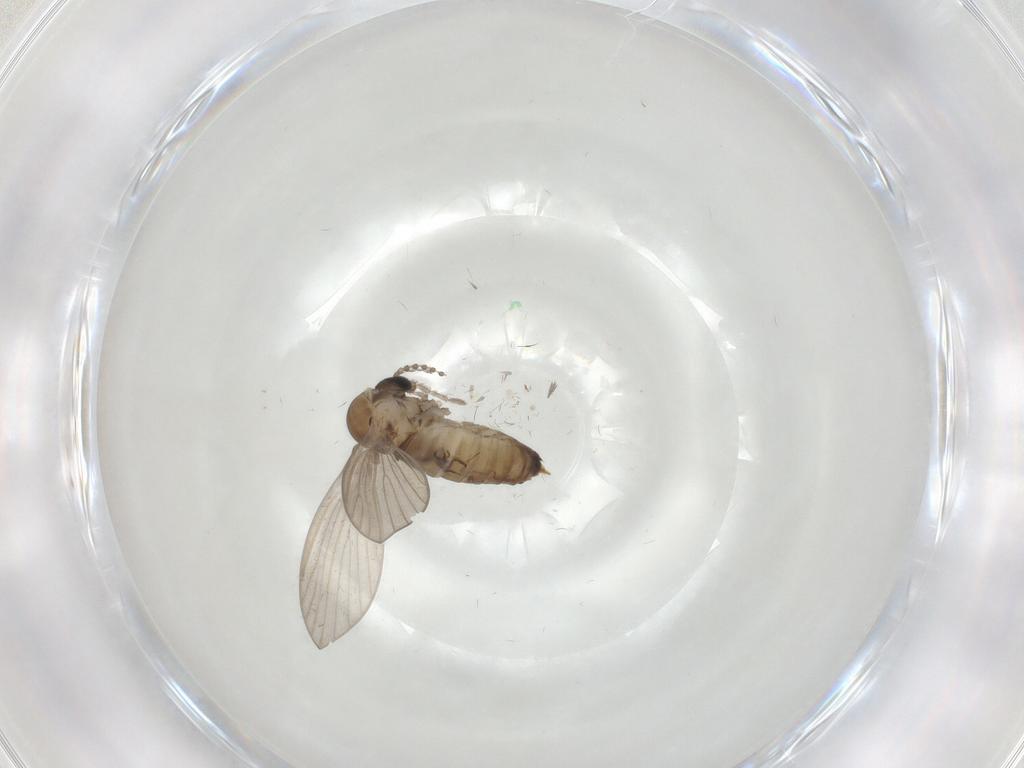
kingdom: Animalia
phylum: Arthropoda
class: Insecta
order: Diptera
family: Psychodidae
